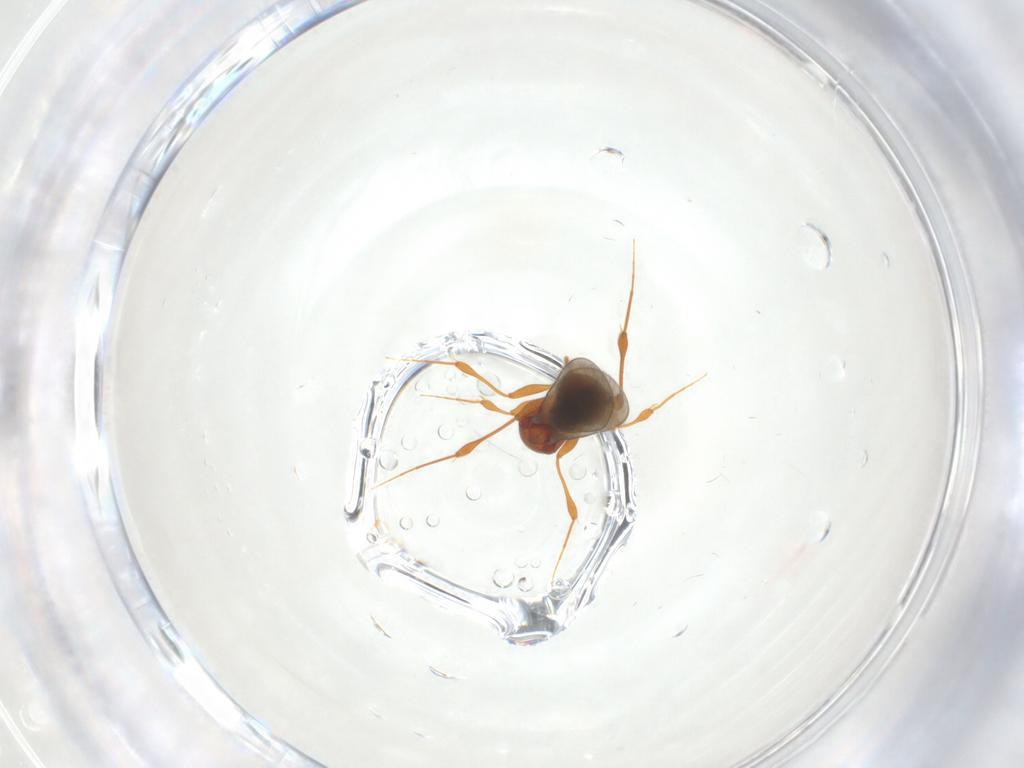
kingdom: Animalia
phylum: Arthropoda
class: Insecta
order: Hymenoptera
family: Platygastridae
